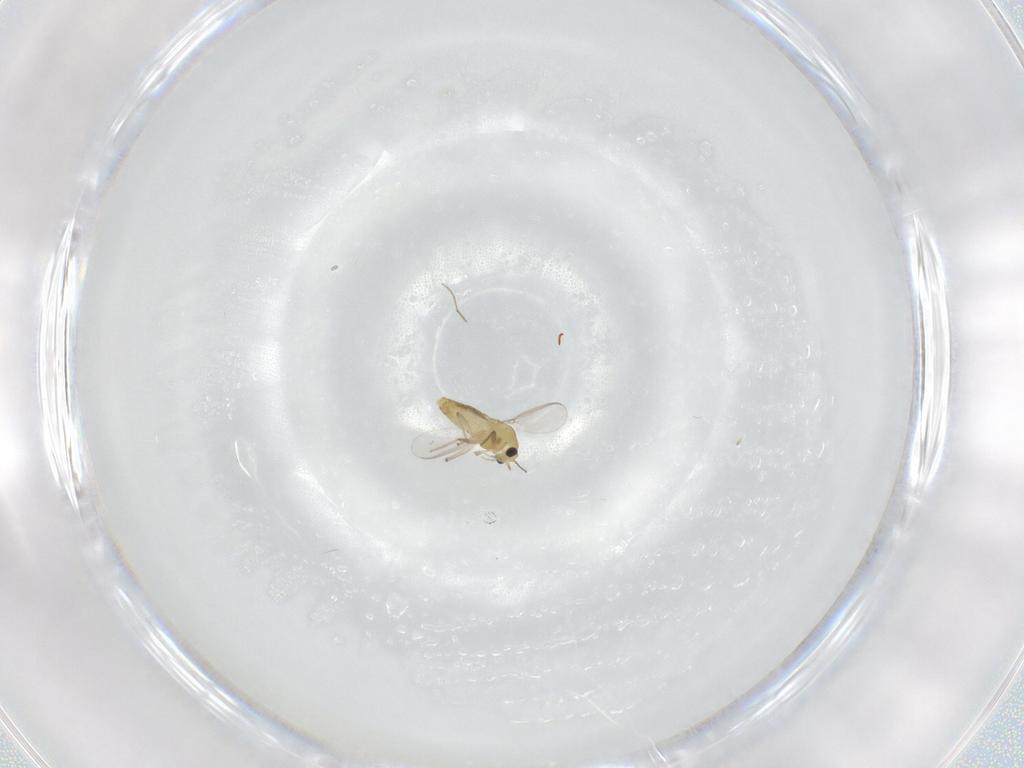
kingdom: Animalia
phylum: Arthropoda
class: Insecta
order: Diptera
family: Chironomidae
